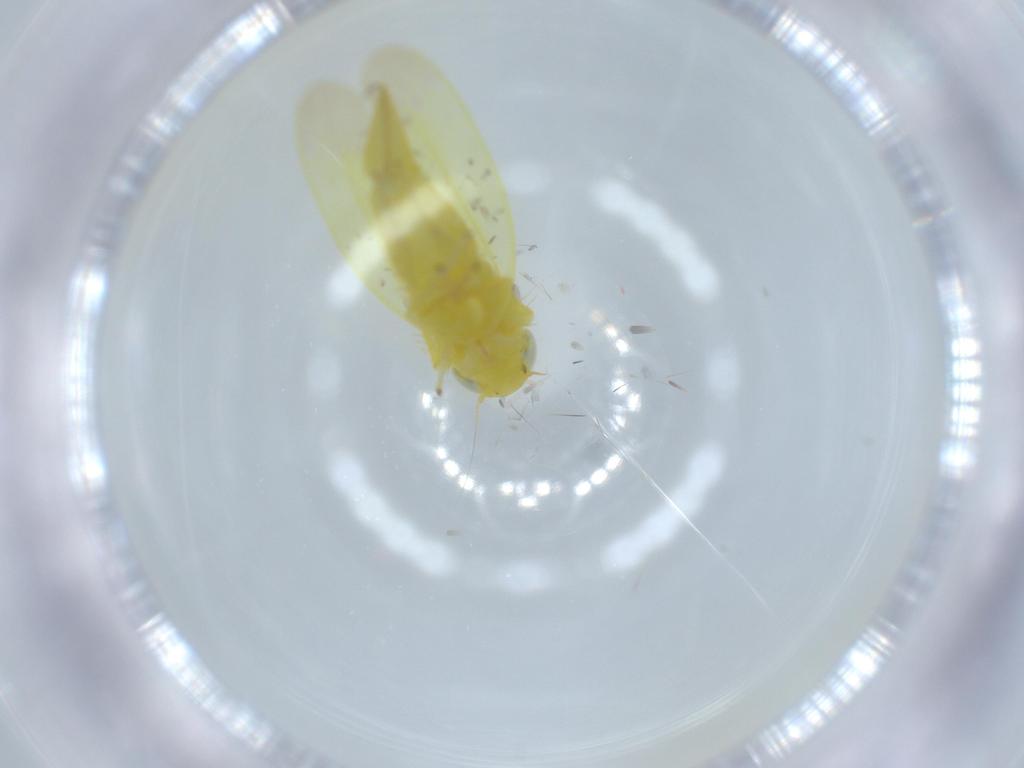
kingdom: Animalia
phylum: Arthropoda
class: Insecta
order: Hemiptera
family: Cicadellidae
